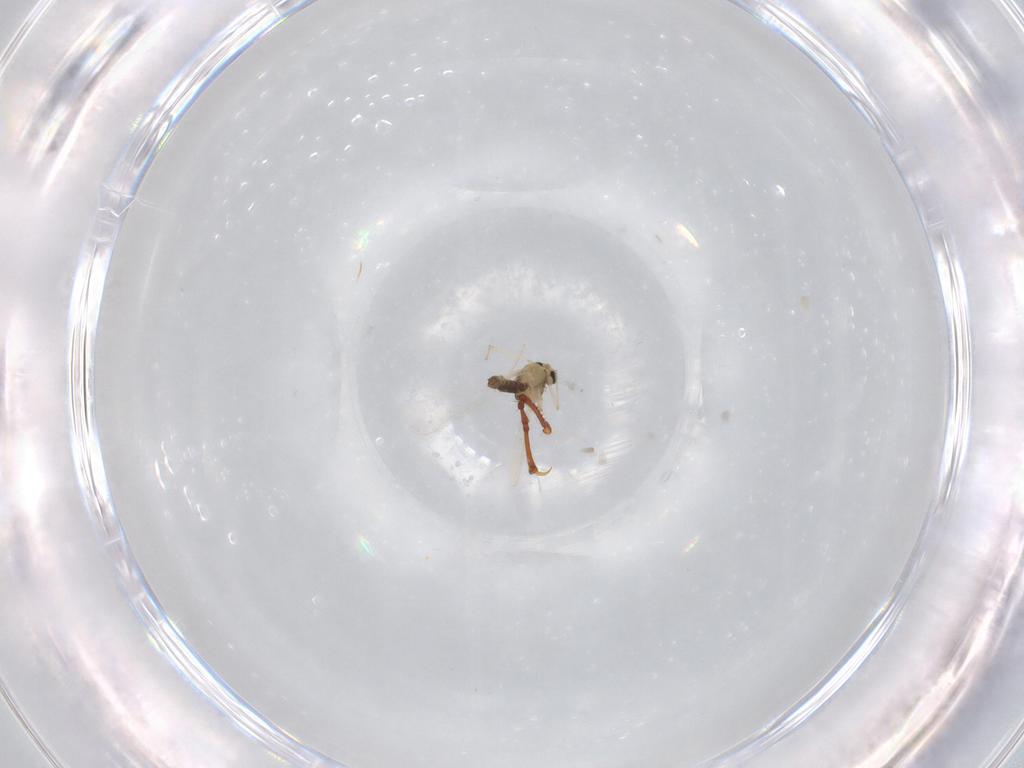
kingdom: Animalia
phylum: Arthropoda
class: Insecta
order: Diptera
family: Chironomidae
